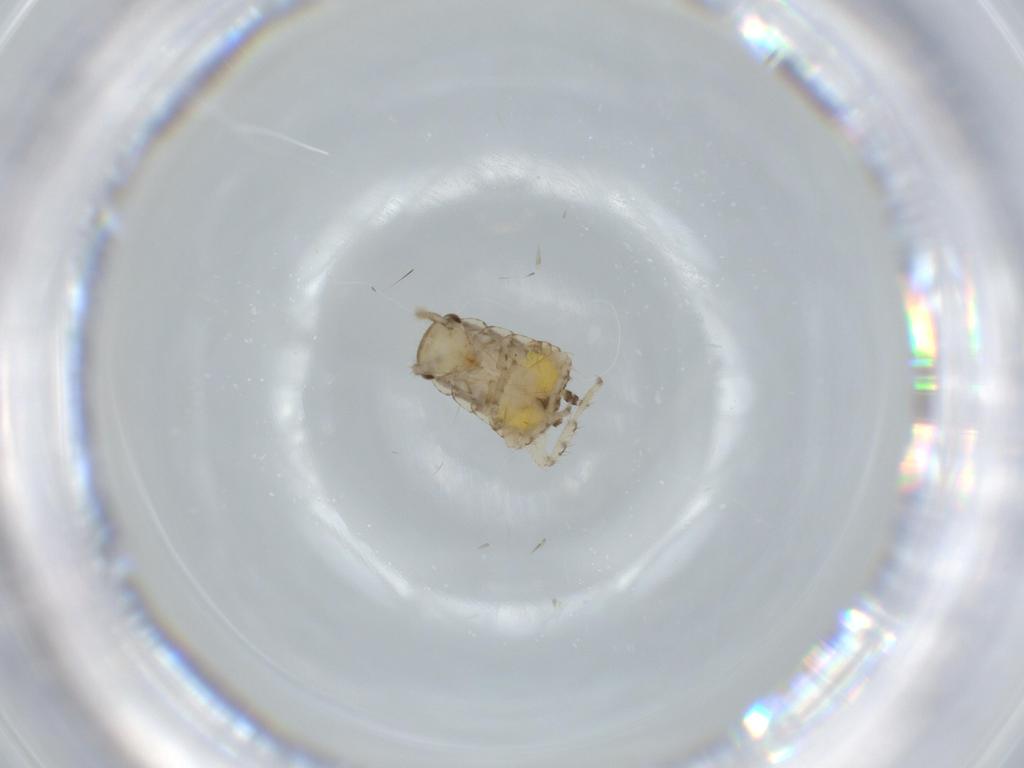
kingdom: Animalia
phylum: Arthropoda
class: Insecta
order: Blattodea
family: Ectobiidae
